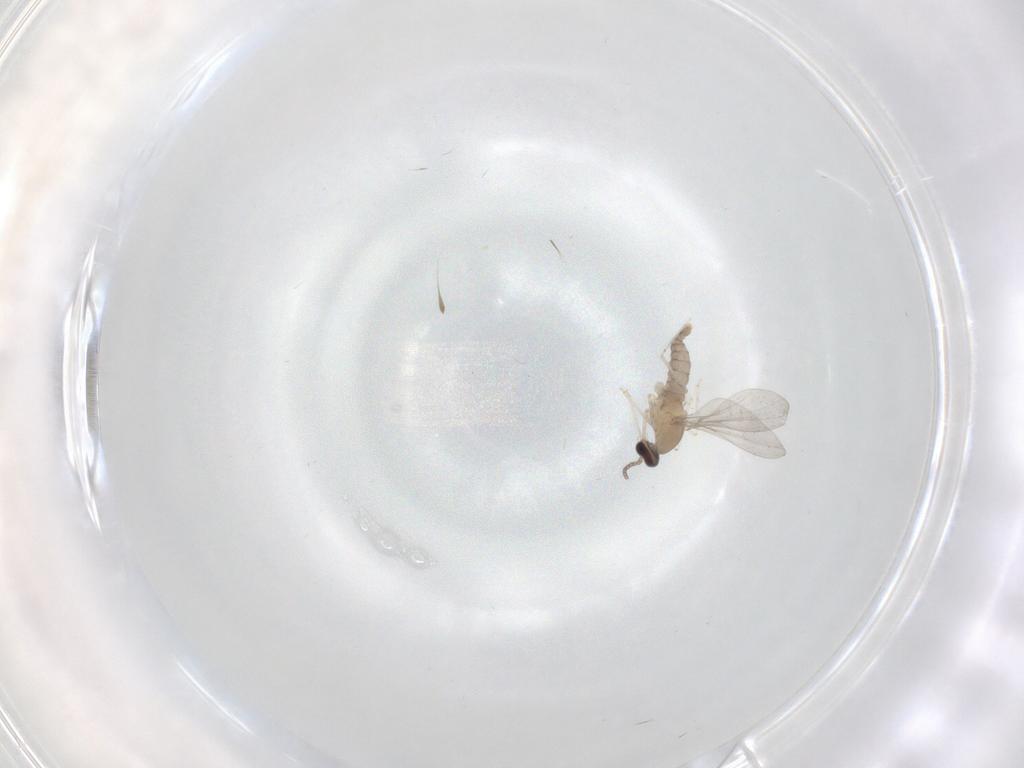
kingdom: Animalia
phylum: Arthropoda
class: Insecta
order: Diptera
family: Cecidomyiidae
